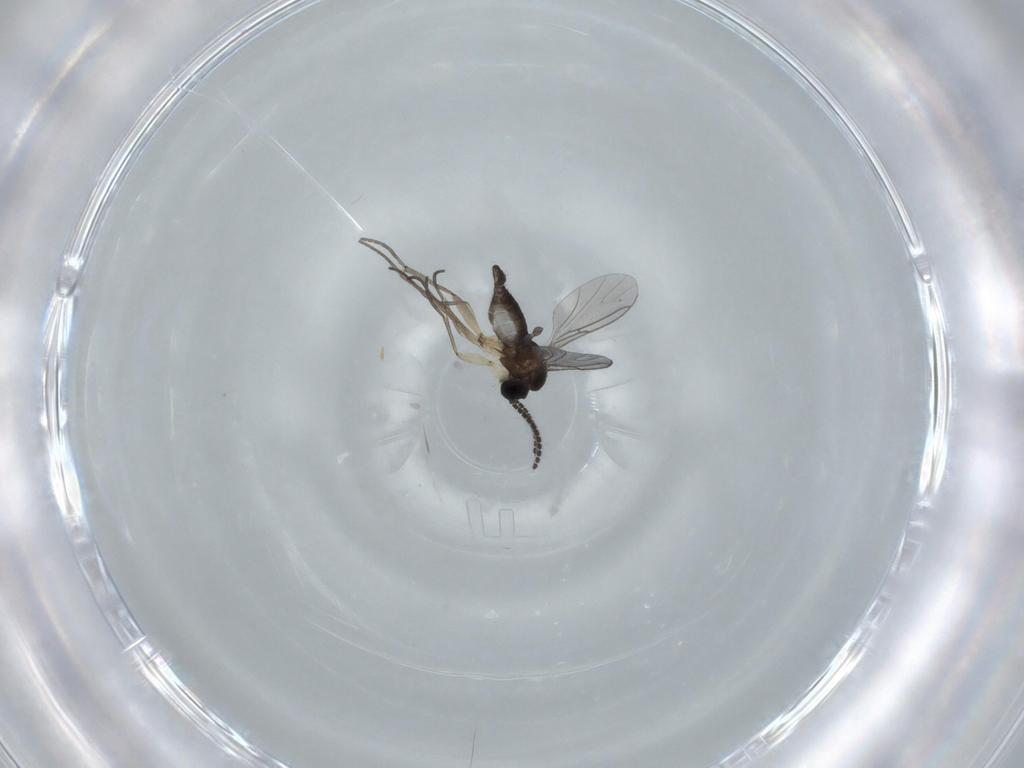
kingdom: Animalia
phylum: Arthropoda
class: Insecta
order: Diptera
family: Sciaridae
